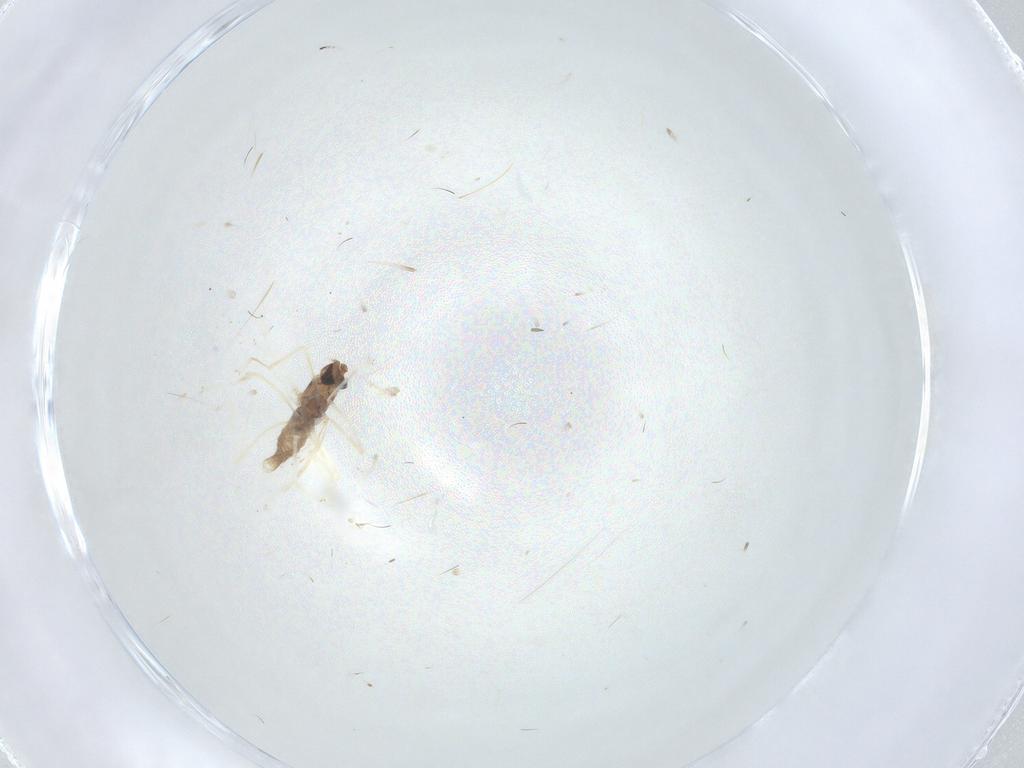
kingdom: Animalia
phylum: Arthropoda
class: Insecta
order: Diptera
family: Cecidomyiidae
